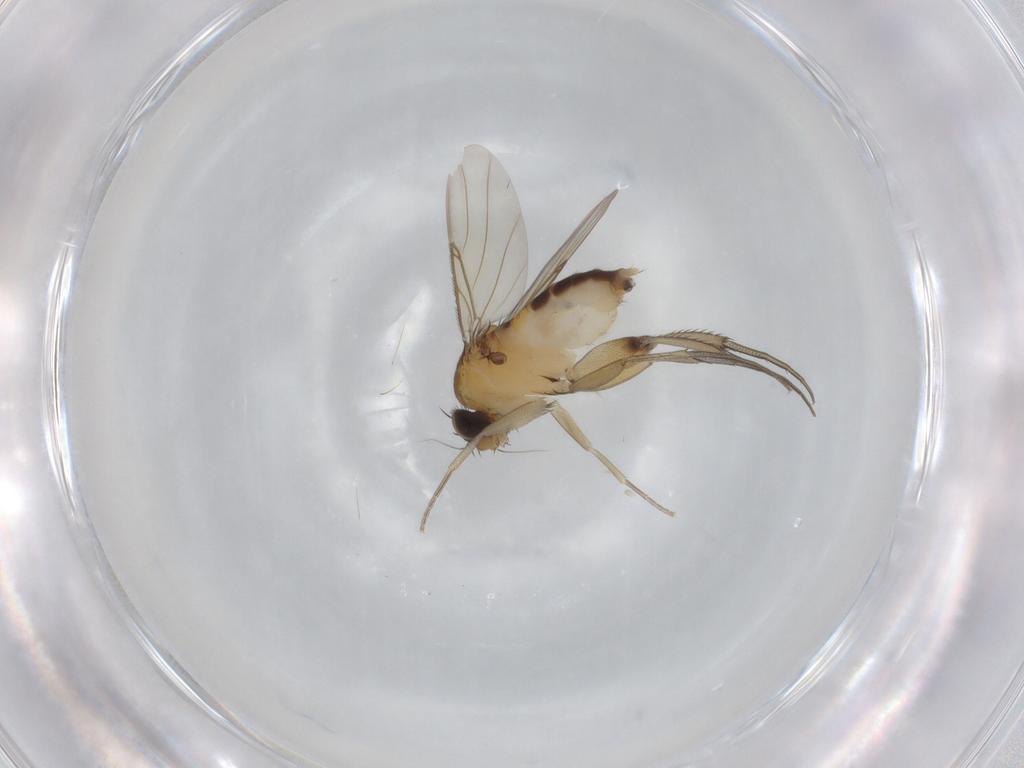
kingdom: Animalia
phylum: Arthropoda
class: Insecta
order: Diptera
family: Phoridae
